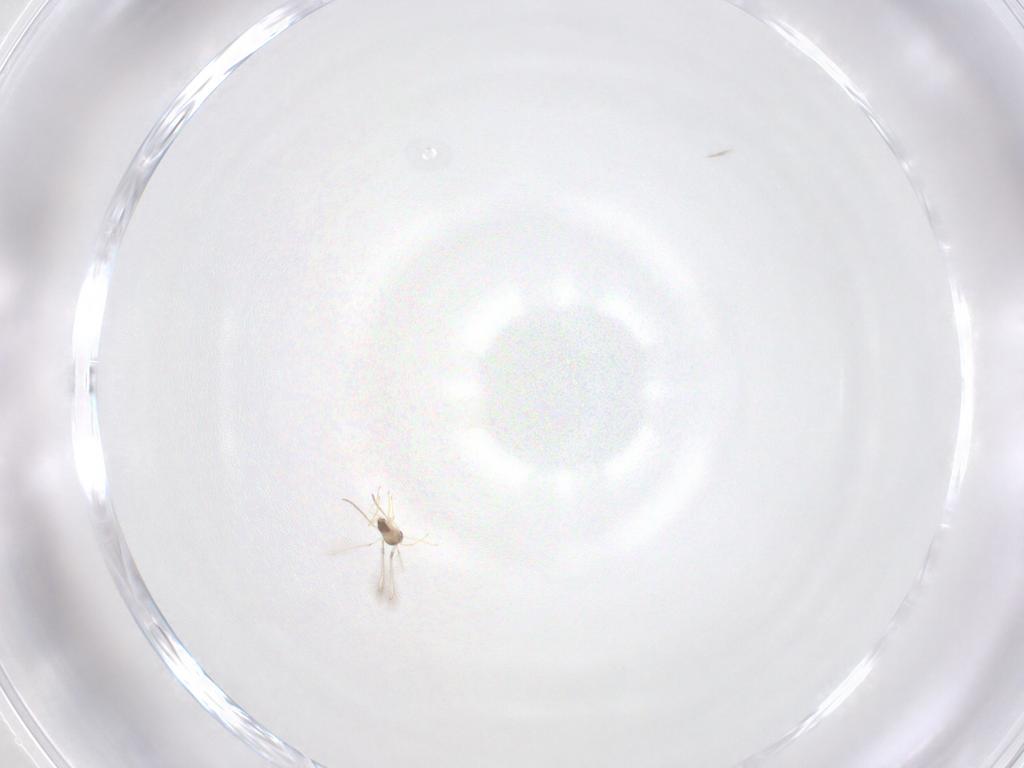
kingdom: Animalia
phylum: Arthropoda
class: Insecta
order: Hymenoptera
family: Mymaridae
